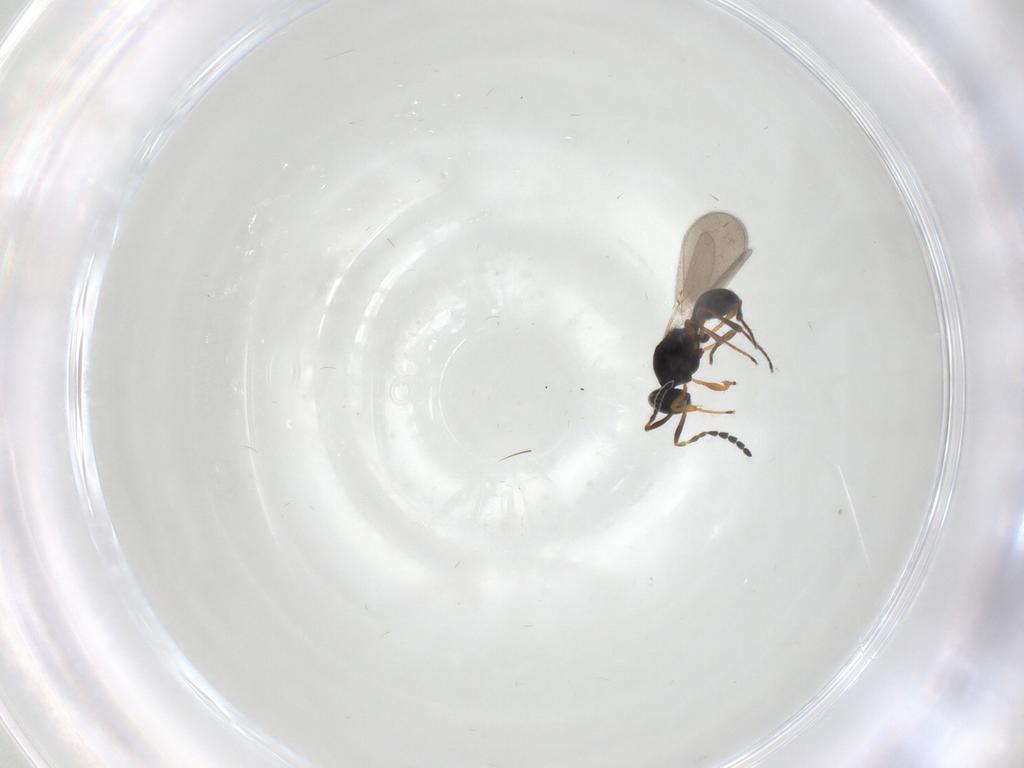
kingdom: Animalia
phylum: Arthropoda
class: Insecta
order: Hymenoptera
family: Platygastridae
